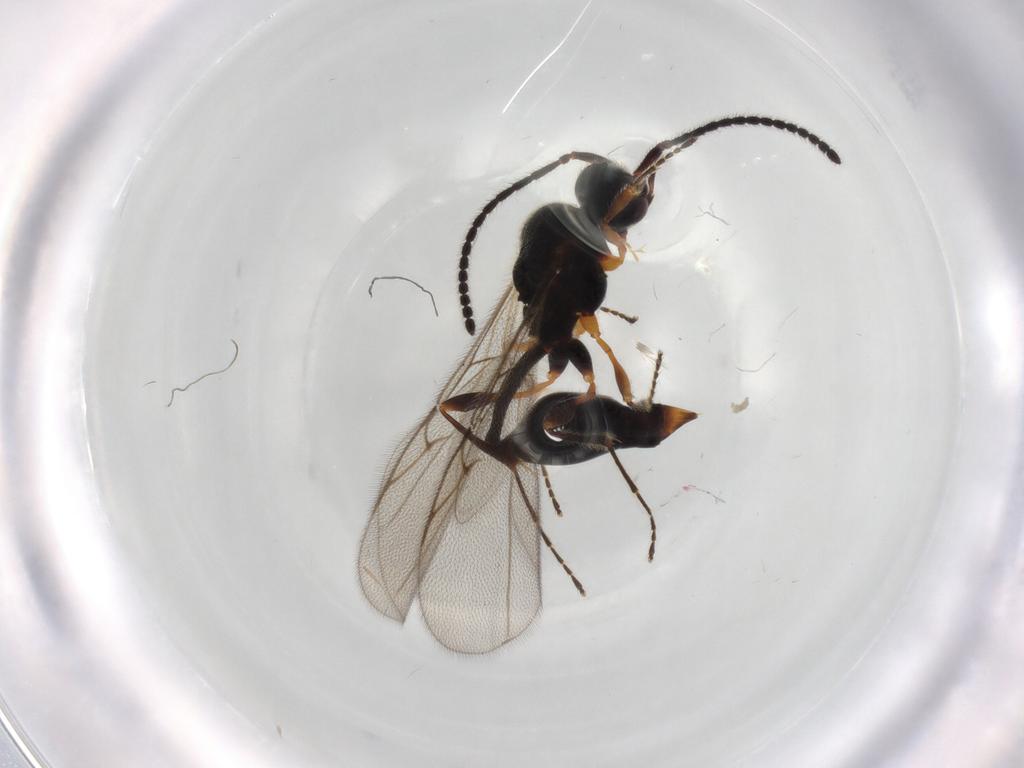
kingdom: Animalia
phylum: Arthropoda
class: Insecta
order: Hymenoptera
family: Diapriidae
